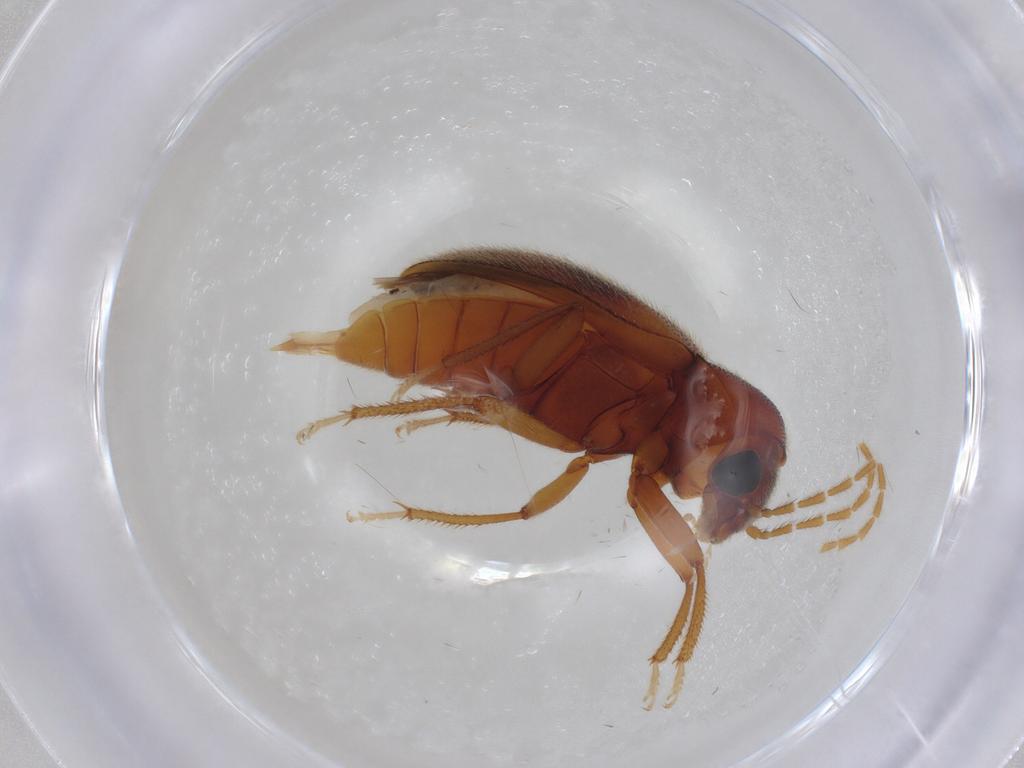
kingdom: Animalia
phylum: Arthropoda
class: Insecta
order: Coleoptera
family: Ptilodactylidae
